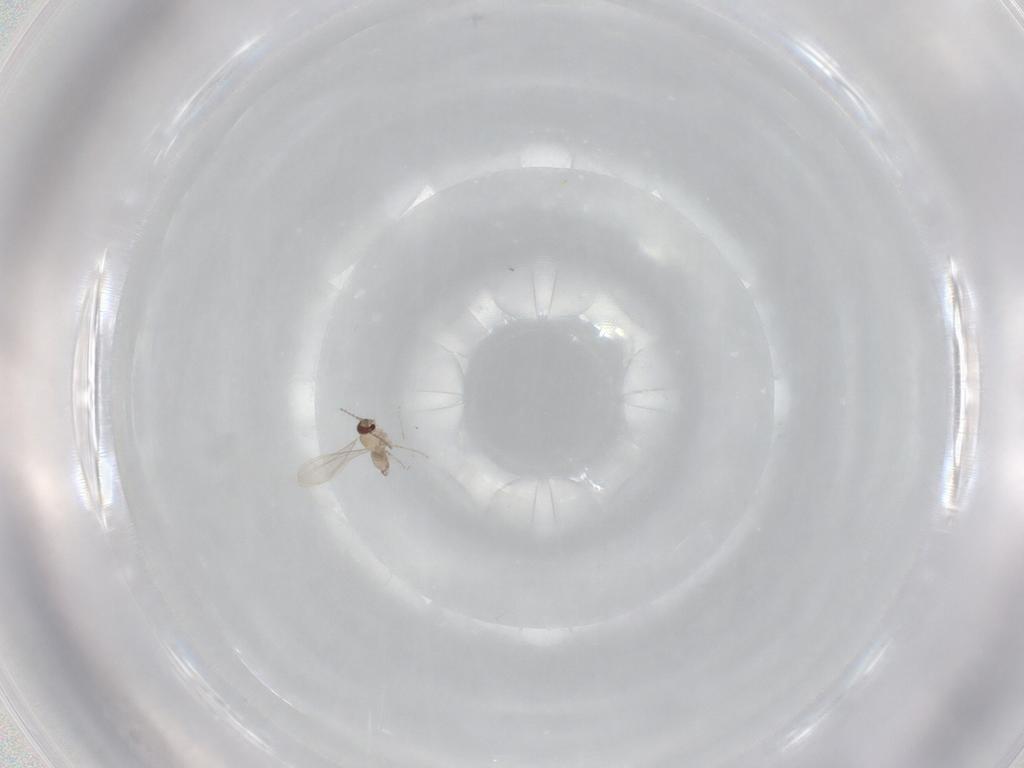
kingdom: Animalia
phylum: Arthropoda
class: Insecta
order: Diptera
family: Cecidomyiidae
